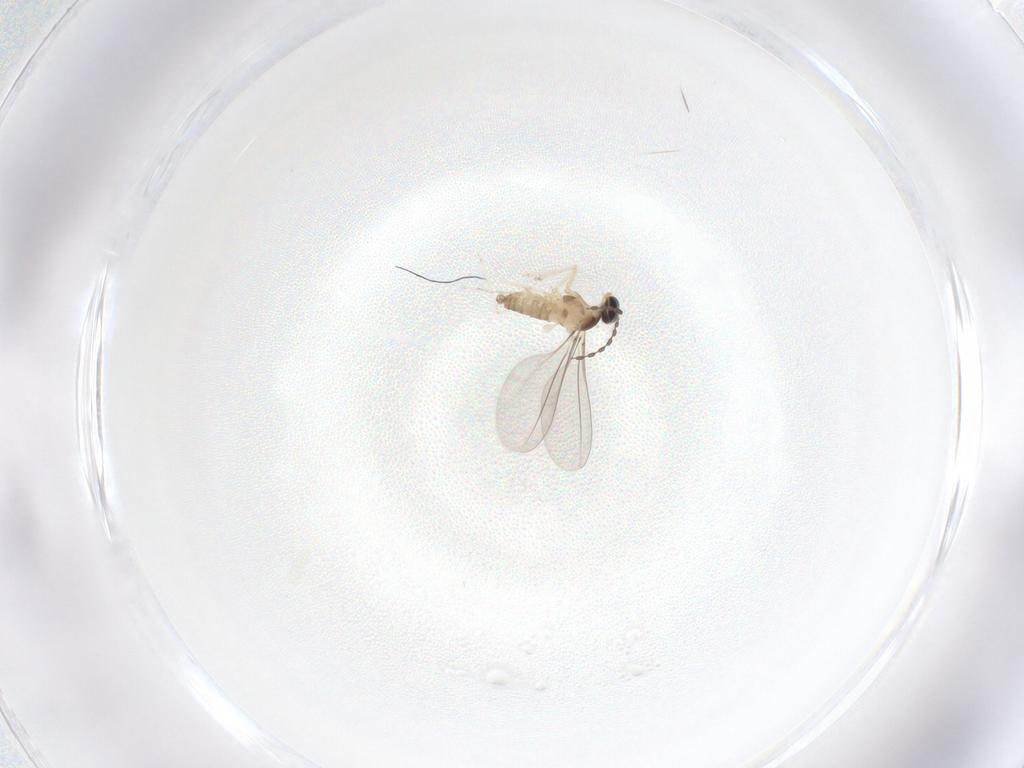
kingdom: Animalia
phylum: Arthropoda
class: Insecta
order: Diptera
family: Cecidomyiidae
